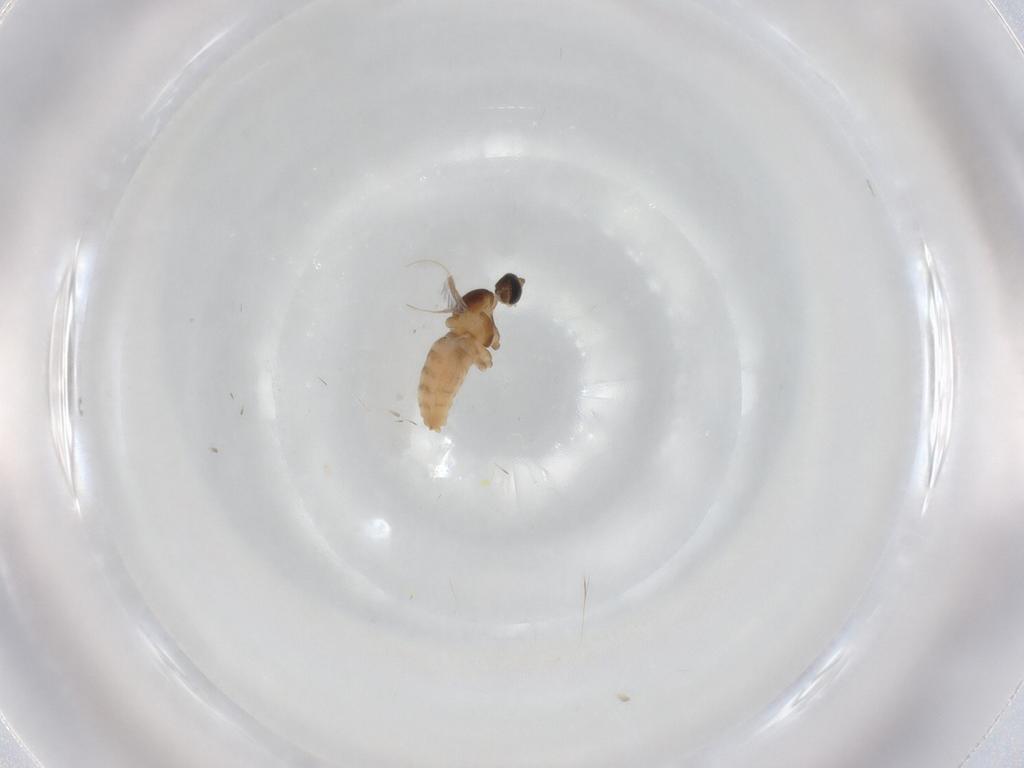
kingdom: Animalia
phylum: Arthropoda
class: Insecta
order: Diptera
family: Cecidomyiidae
